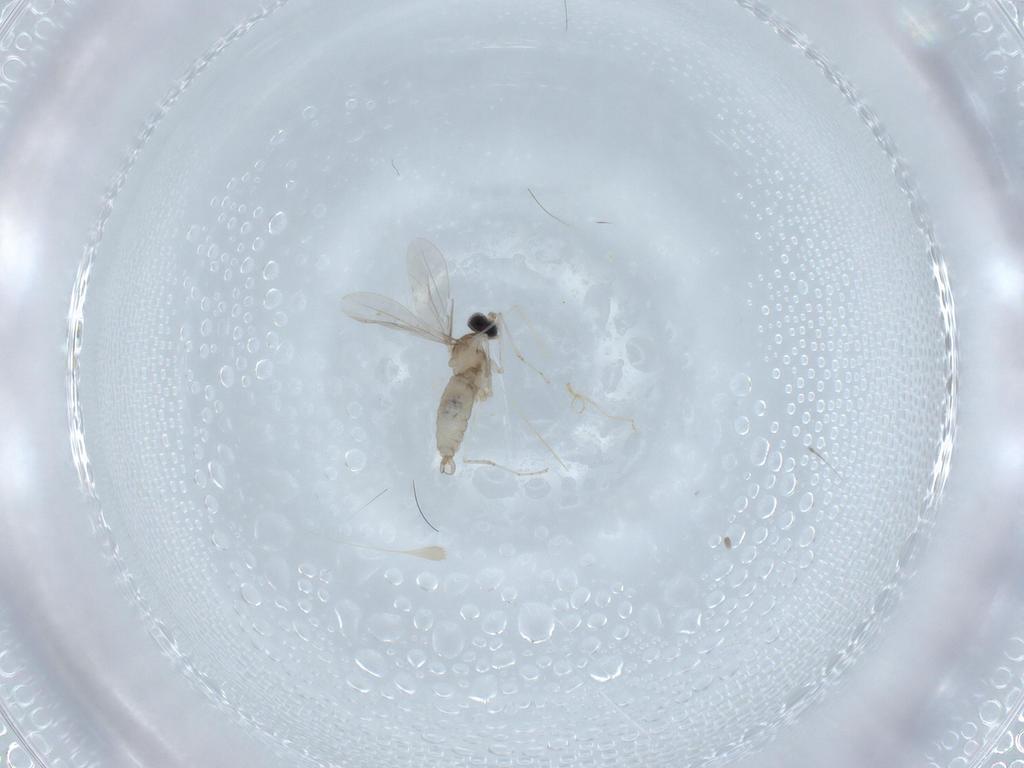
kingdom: Animalia
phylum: Arthropoda
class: Insecta
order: Diptera
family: Cecidomyiidae
